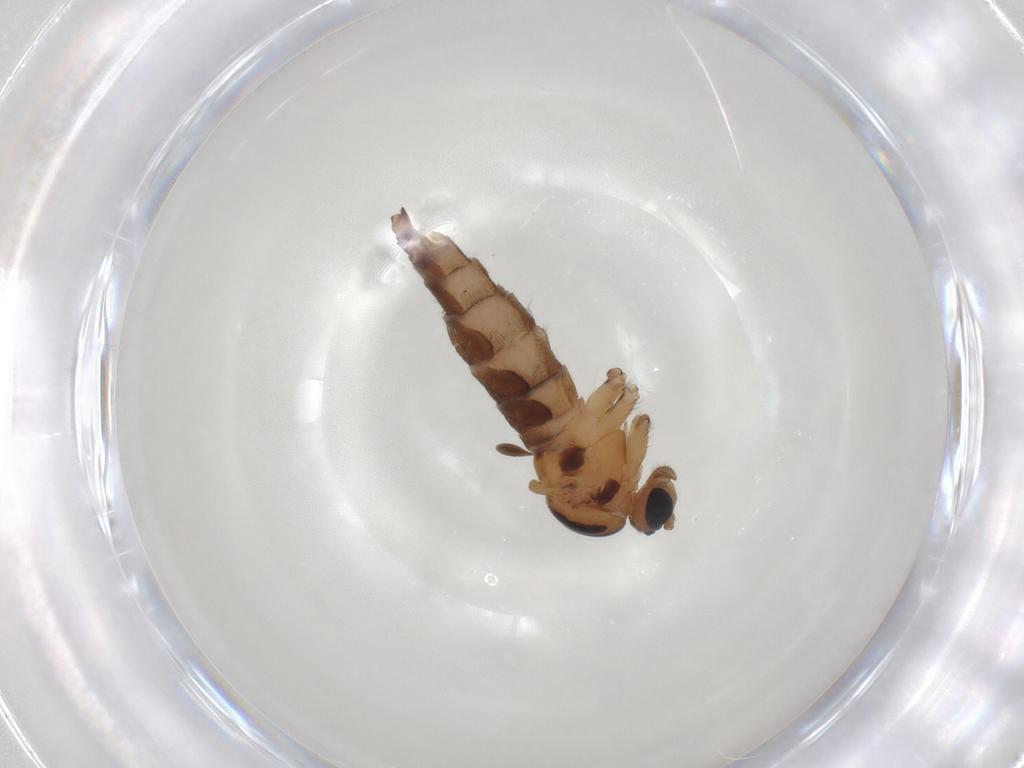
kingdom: Animalia
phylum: Arthropoda
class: Insecta
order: Diptera
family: Sciaridae
